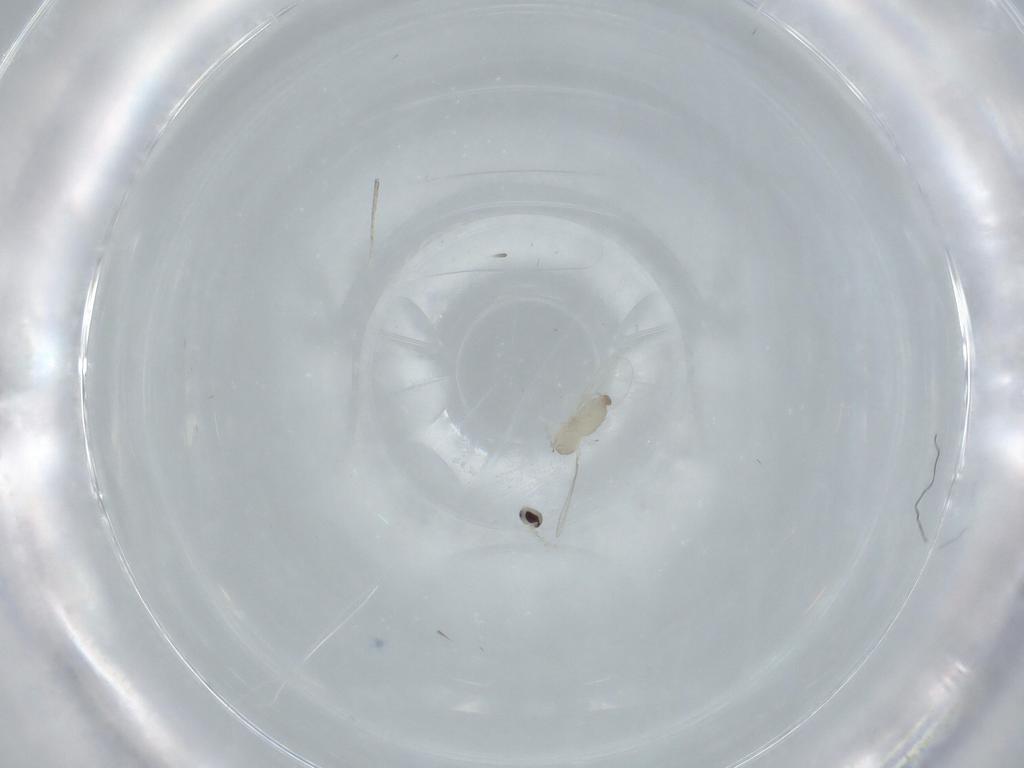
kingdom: Animalia
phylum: Arthropoda
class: Insecta
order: Diptera
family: Cecidomyiidae
